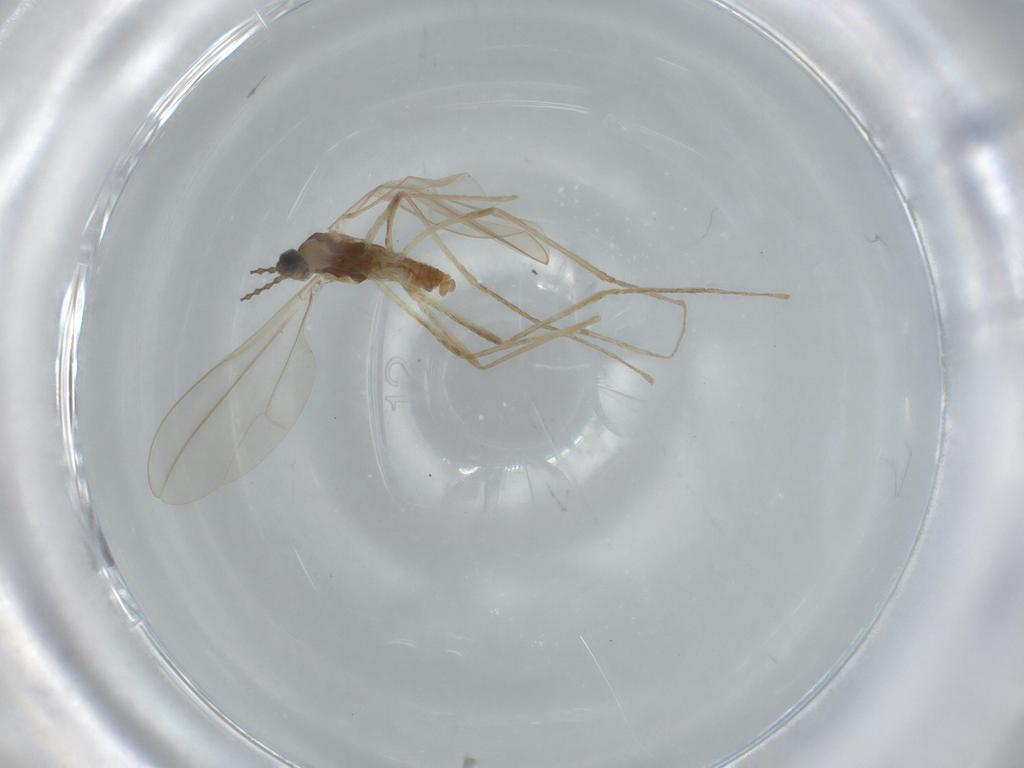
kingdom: Animalia
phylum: Arthropoda
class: Insecta
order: Diptera
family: Cecidomyiidae
